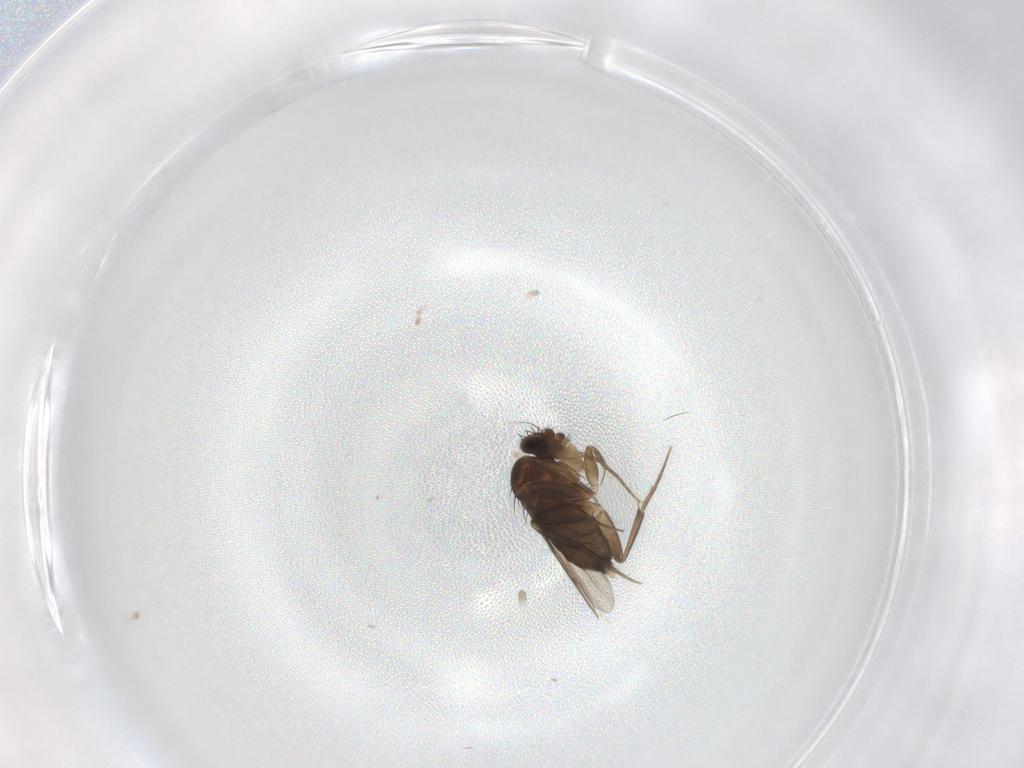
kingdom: Animalia
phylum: Arthropoda
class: Insecta
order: Diptera
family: Phoridae
